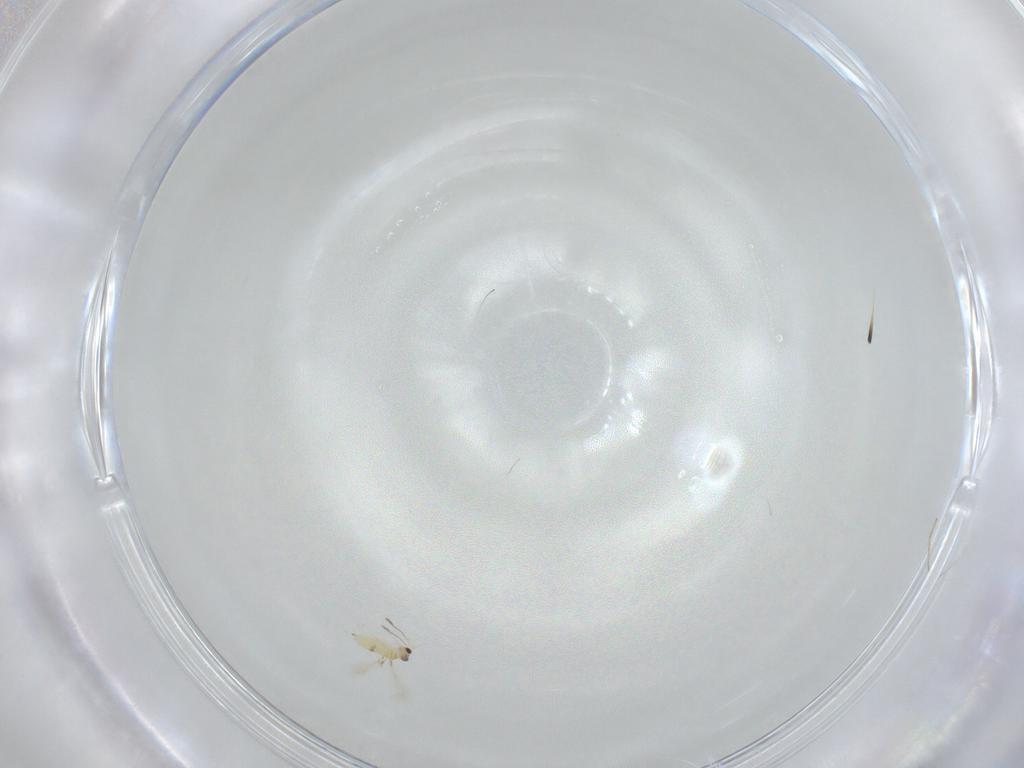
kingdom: Animalia
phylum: Arthropoda
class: Insecta
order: Hymenoptera
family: Mymaridae
